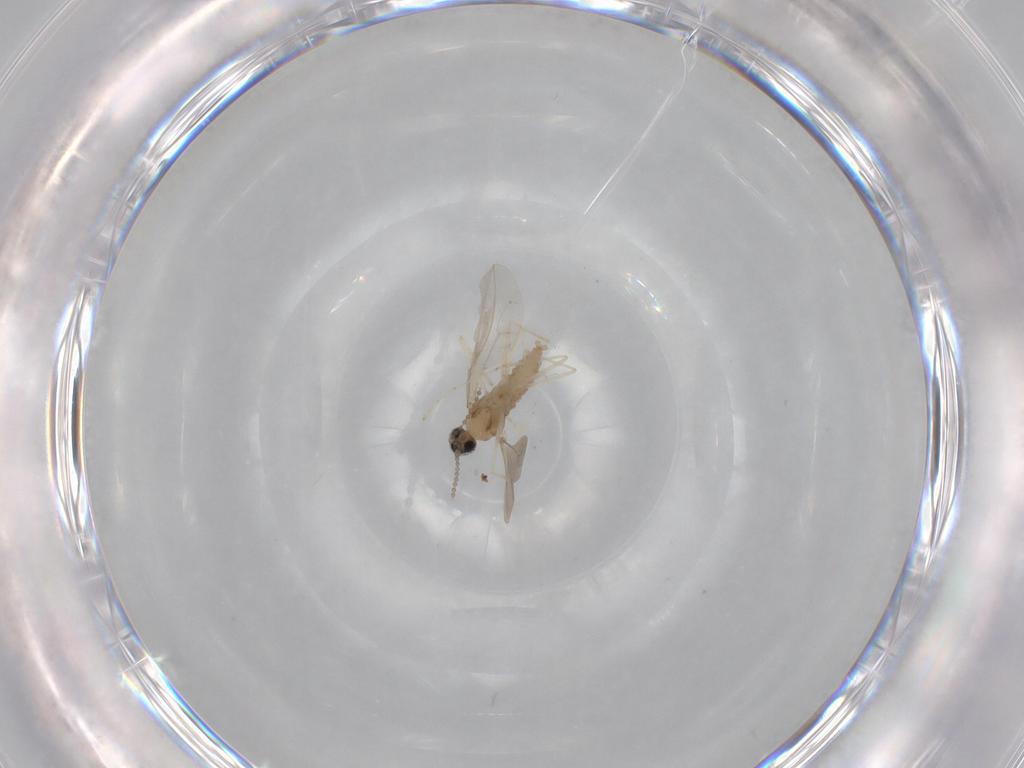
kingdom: Animalia
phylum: Arthropoda
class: Insecta
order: Diptera
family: Cecidomyiidae
